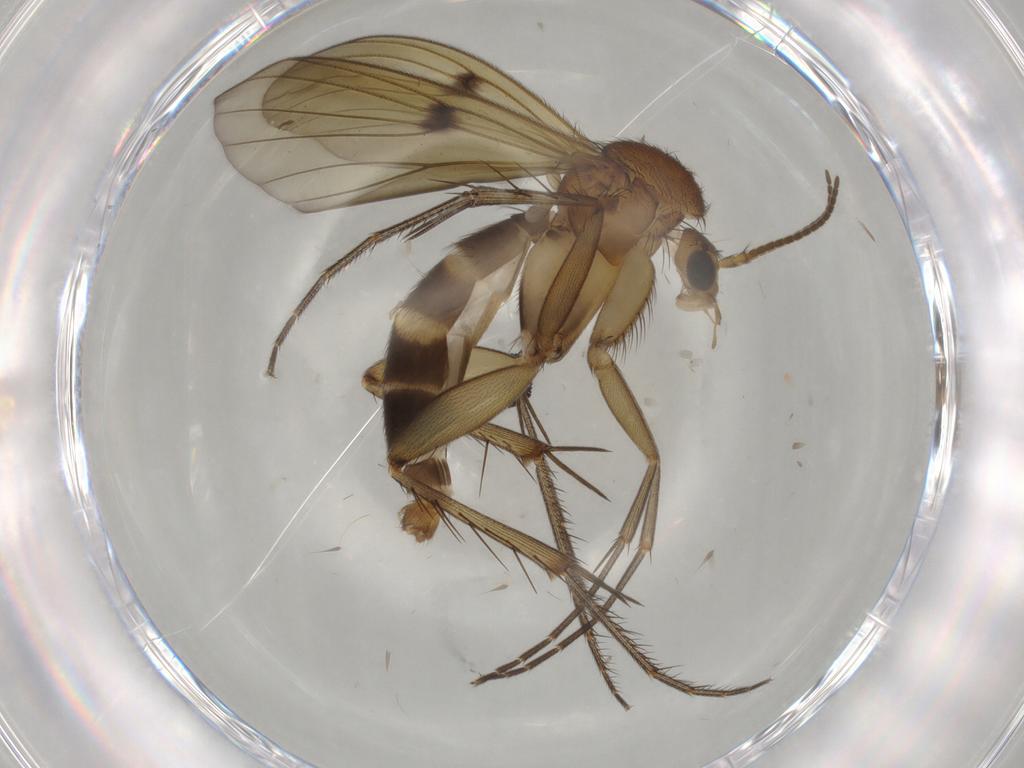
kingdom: Animalia
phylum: Arthropoda
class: Insecta
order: Diptera
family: Mycetophilidae
